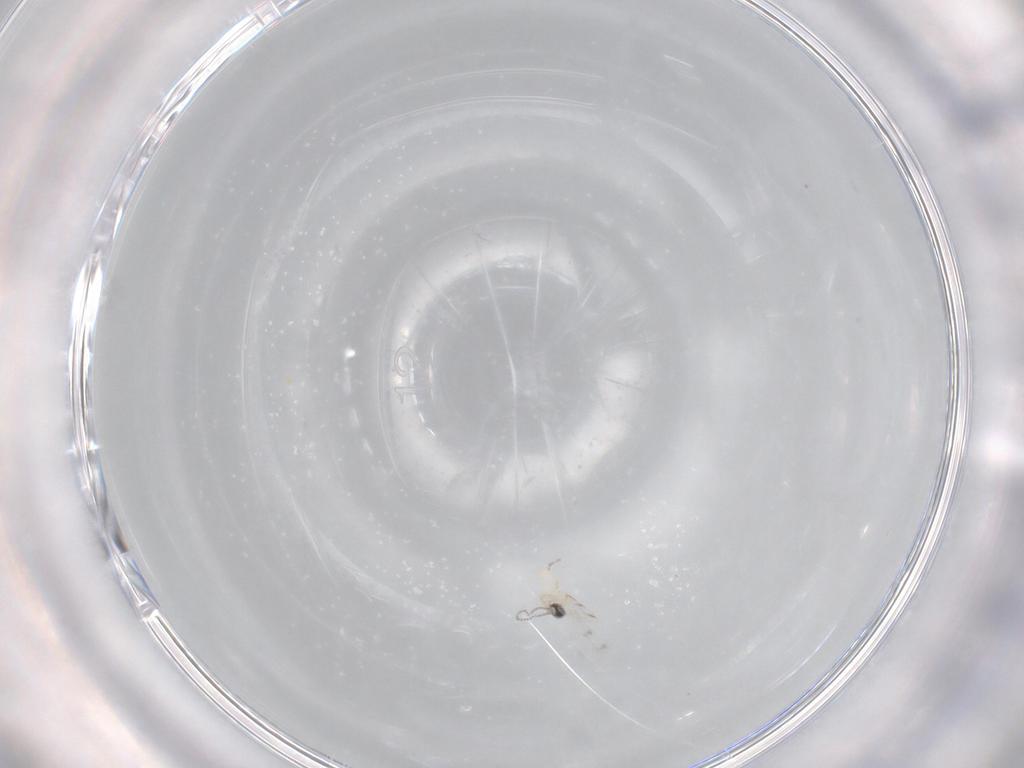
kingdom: Animalia
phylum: Arthropoda
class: Insecta
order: Diptera
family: Cecidomyiidae
